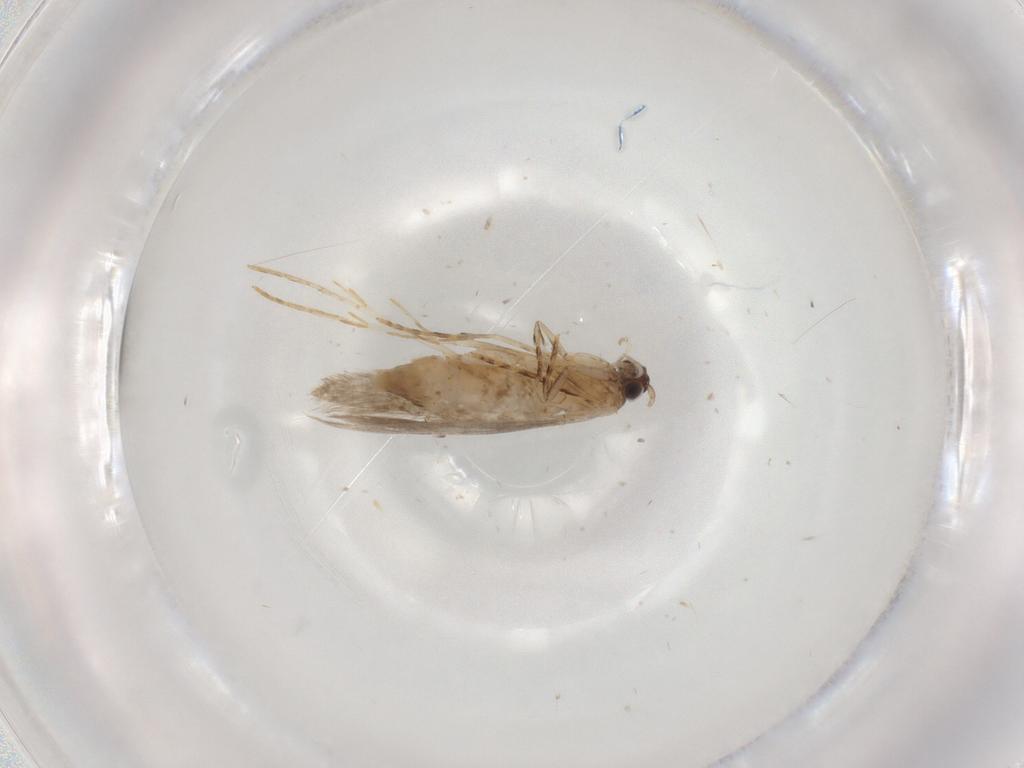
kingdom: Animalia
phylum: Arthropoda
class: Insecta
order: Lepidoptera
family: Tineidae
